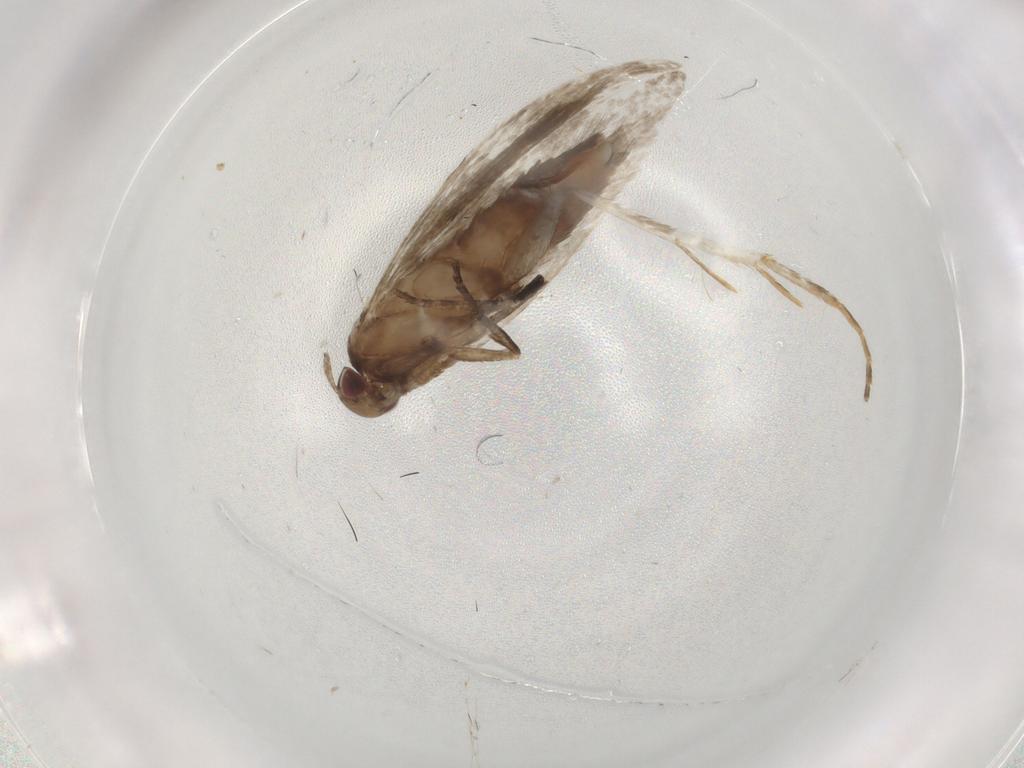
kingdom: Animalia
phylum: Arthropoda
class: Insecta
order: Lepidoptera
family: Gelechiidae
